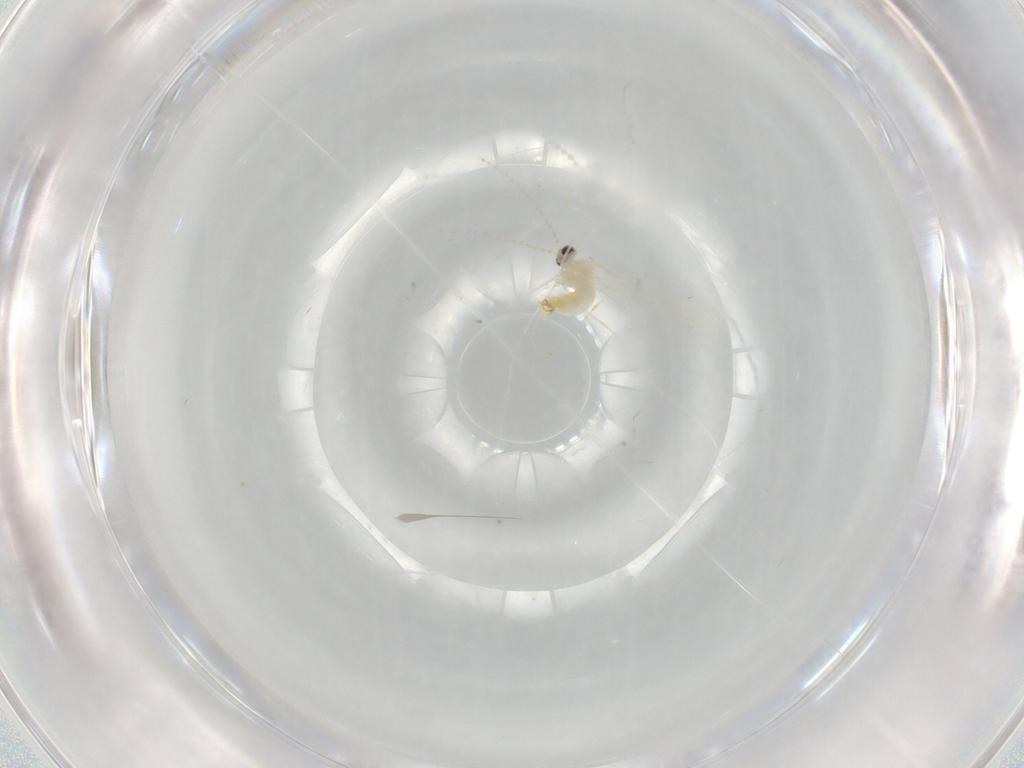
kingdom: Animalia
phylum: Arthropoda
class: Insecta
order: Diptera
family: Cecidomyiidae
